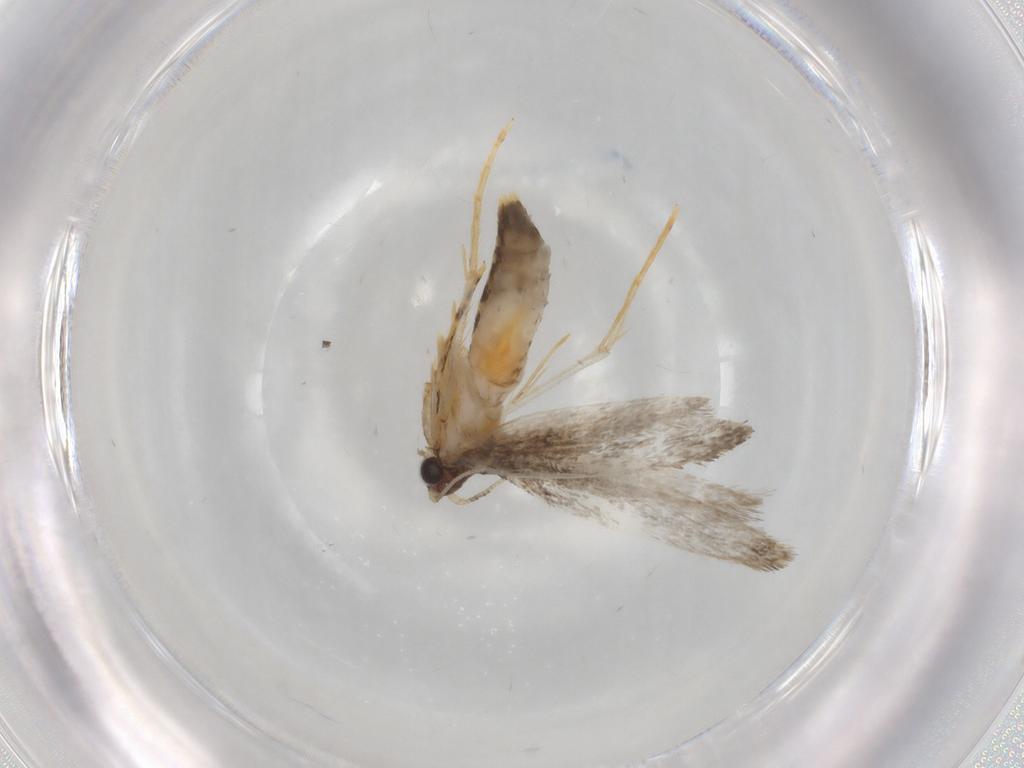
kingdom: Animalia
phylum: Arthropoda
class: Insecta
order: Lepidoptera
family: Tineidae
